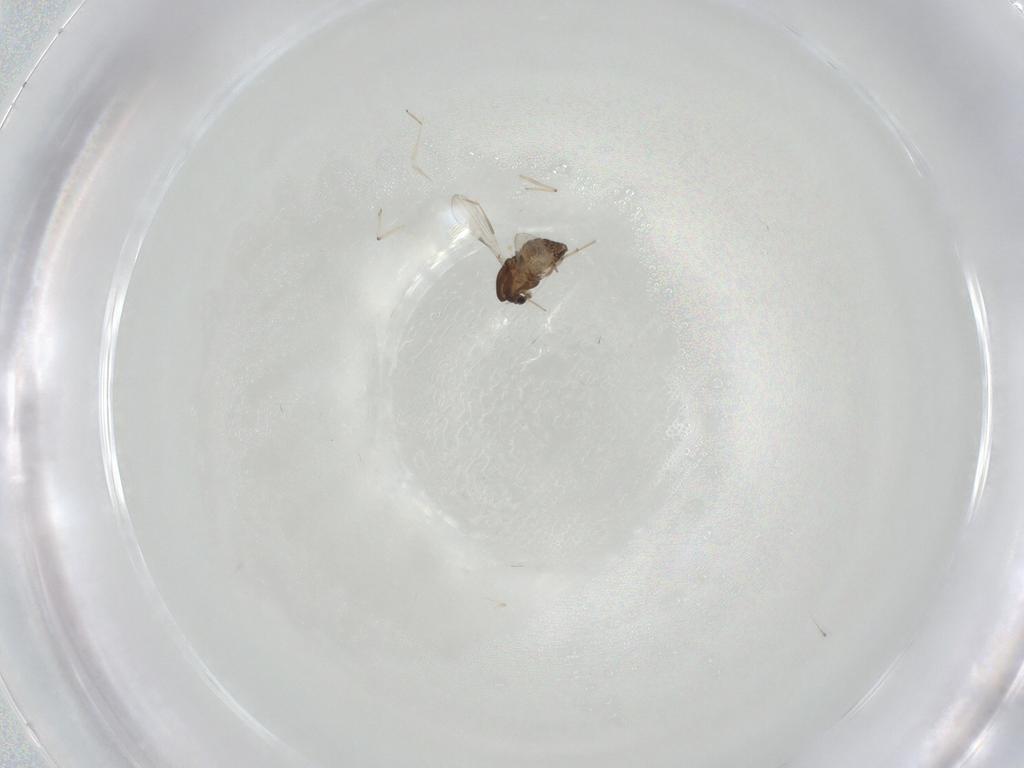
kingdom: Animalia
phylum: Arthropoda
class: Insecta
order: Diptera
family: Chironomidae
